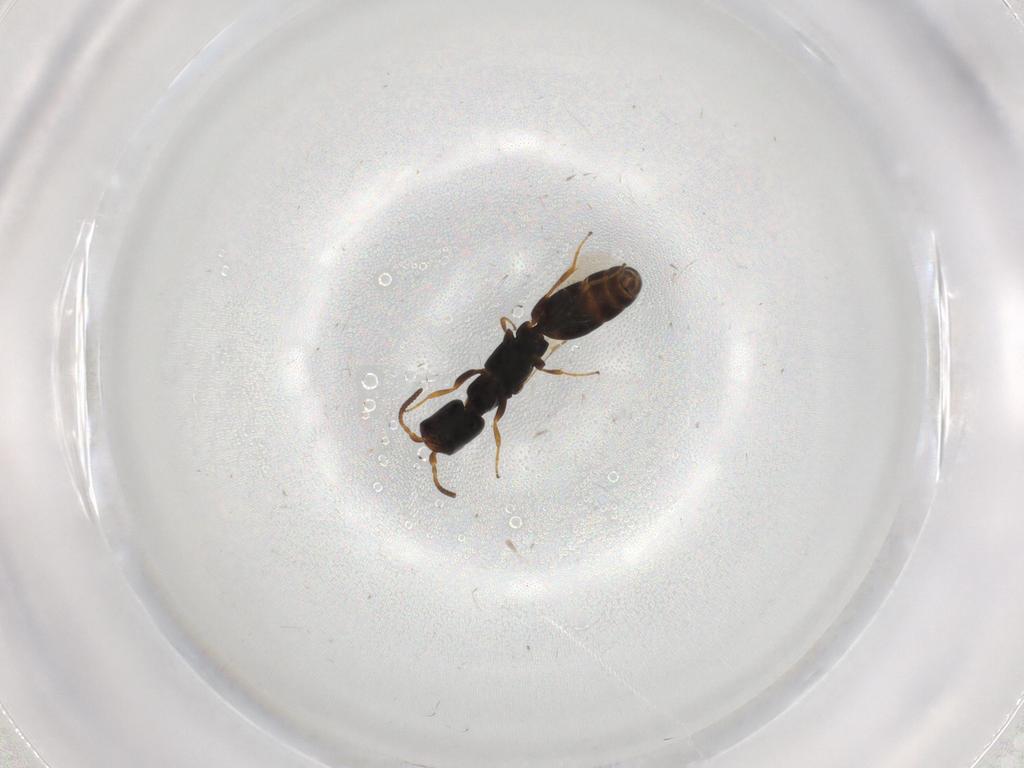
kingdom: Animalia
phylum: Arthropoda
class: Insecta
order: Hymenoptera
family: Bethylidae
